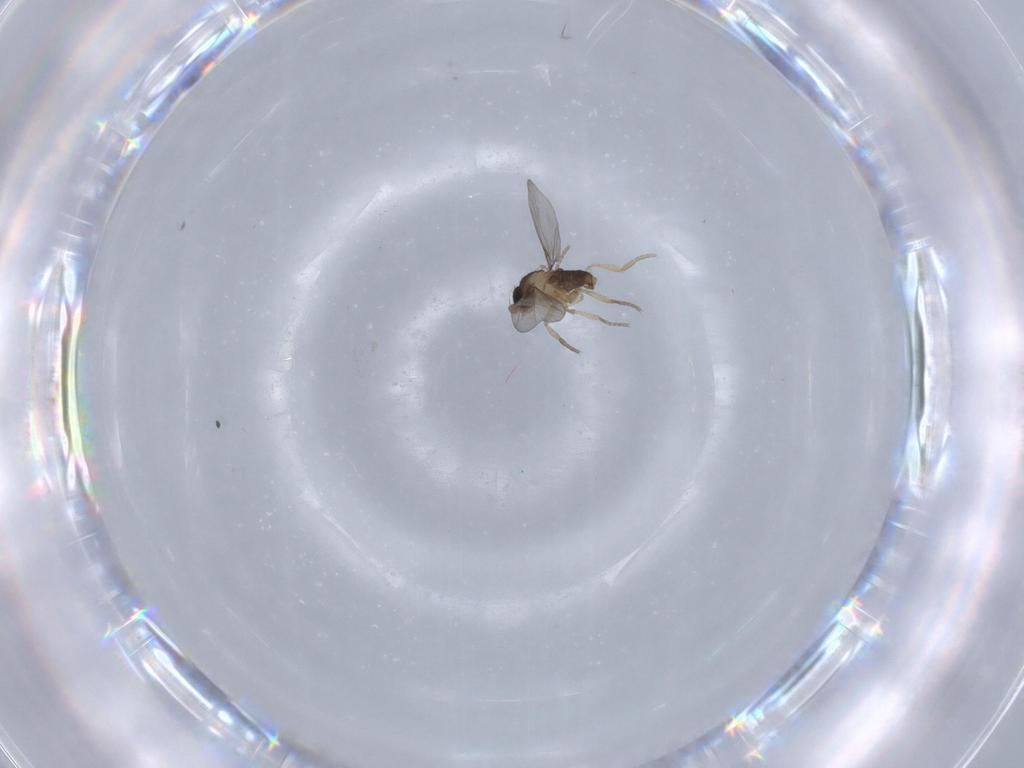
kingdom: Animalia
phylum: Arthropoda
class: Insecta
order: Diptera
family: Phoridae
